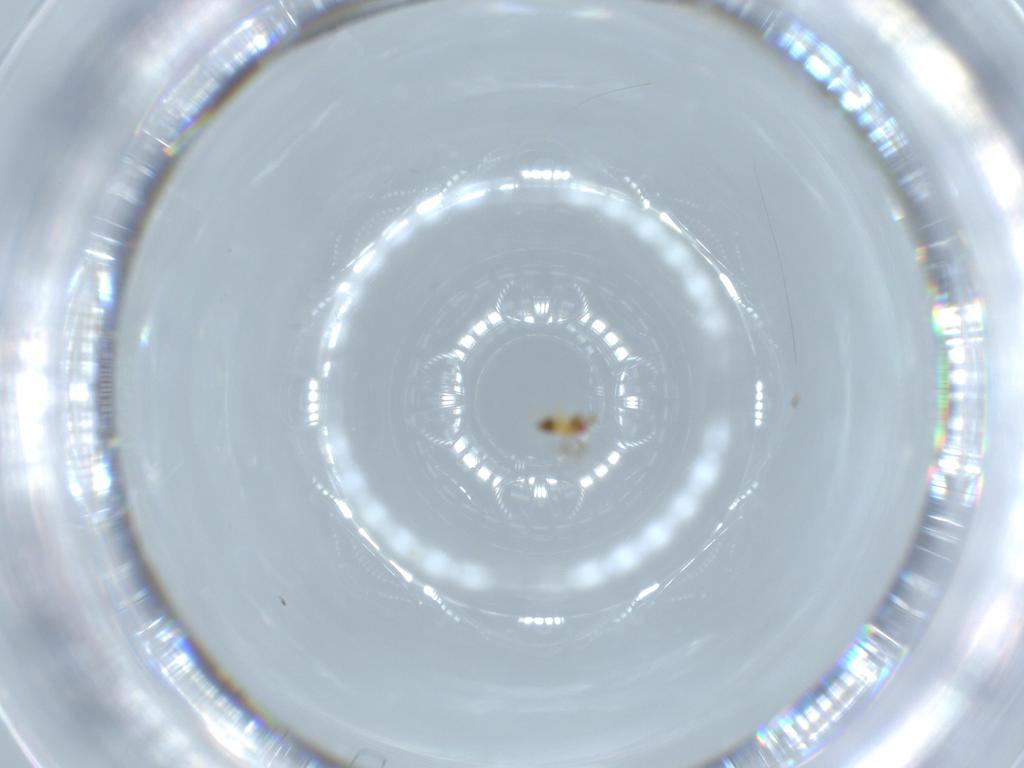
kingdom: Animalia
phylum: Arthropoda
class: Insecta
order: Hymenoptera
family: Trichogrammatidae
